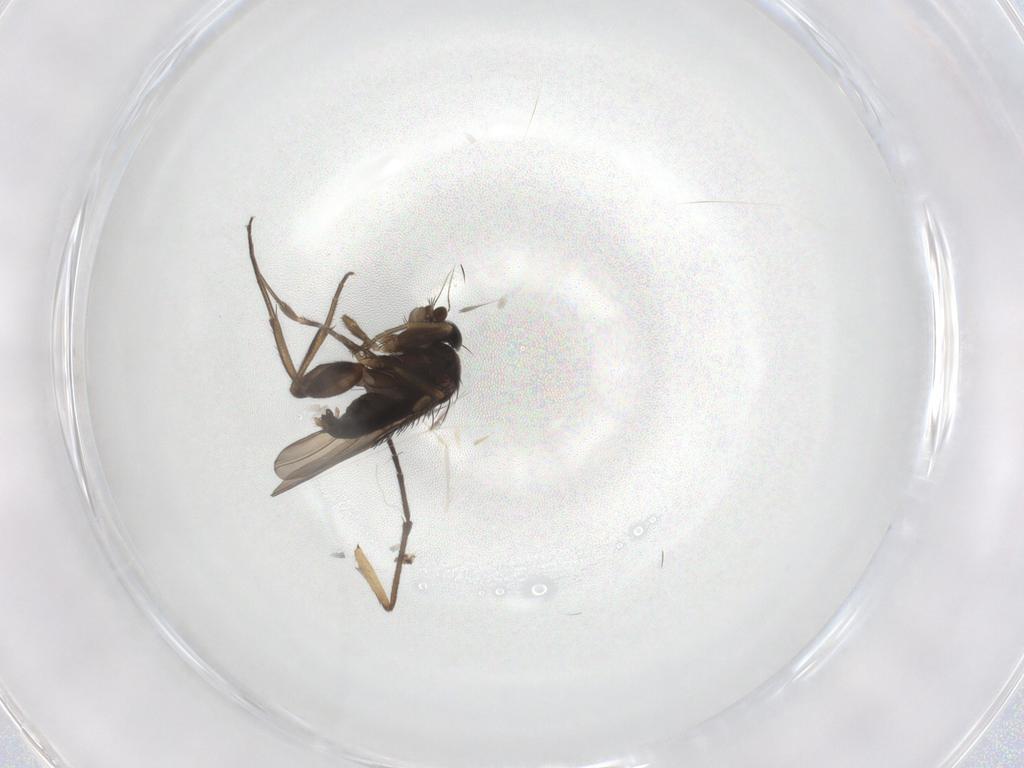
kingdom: Animalia
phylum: Arthropoda
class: Insecta
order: Diptera
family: Phoridae
